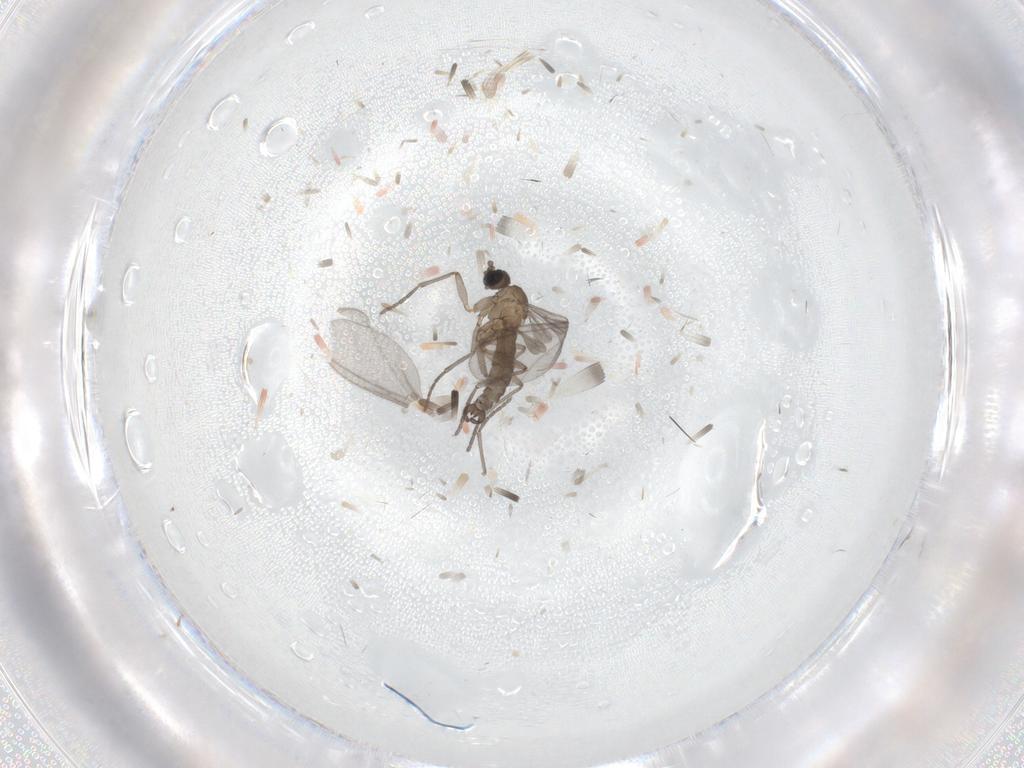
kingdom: Animalia
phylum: Arthropoda
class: Insecta
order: Diptera
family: Sciaridae
